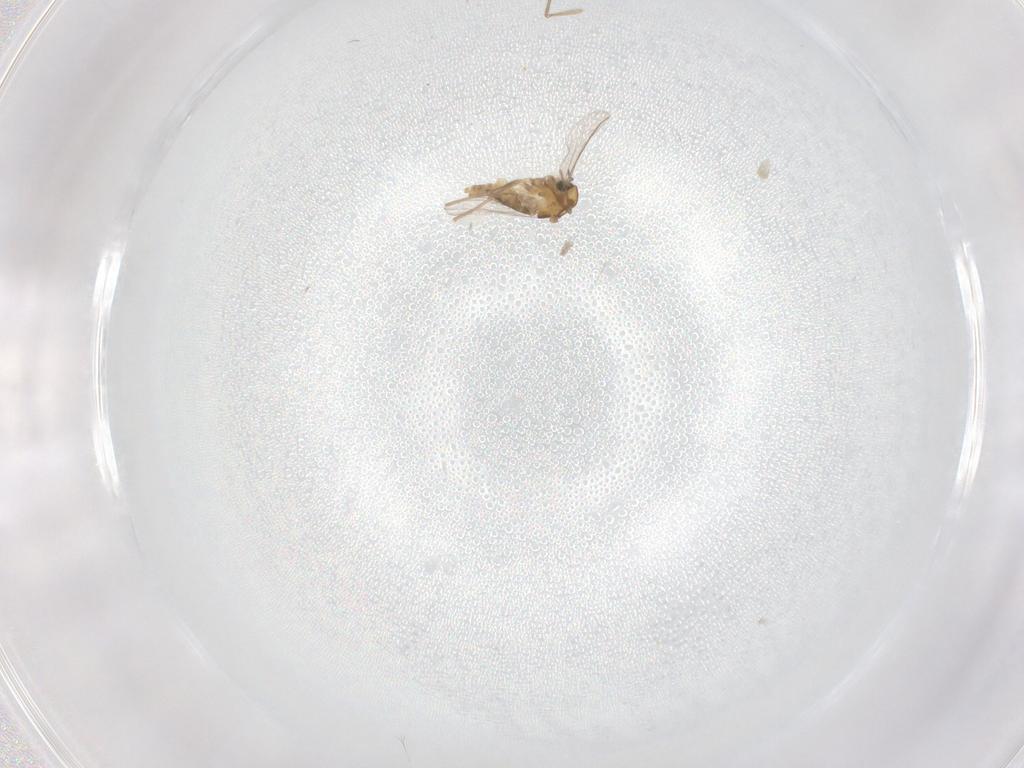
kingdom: Animalia
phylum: Arthropoda
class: Insecta
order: Diptera
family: Chironomidae
